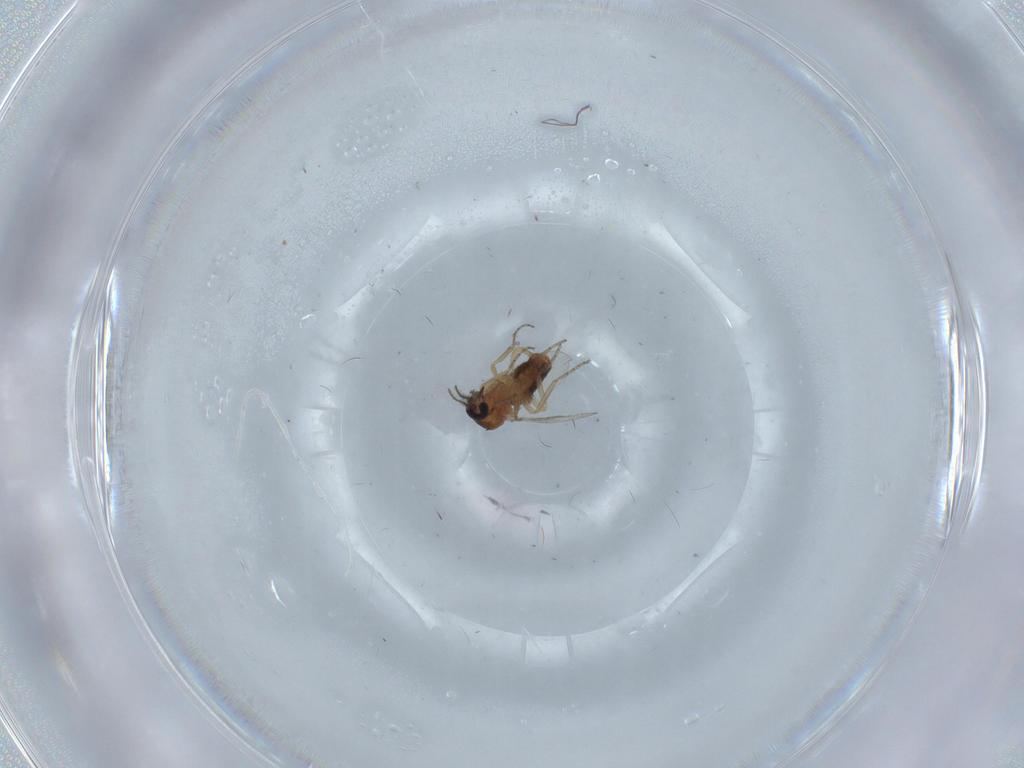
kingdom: Animalia
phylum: Arthropoda
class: Insecta
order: Diptera
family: Ceratopogonidae
